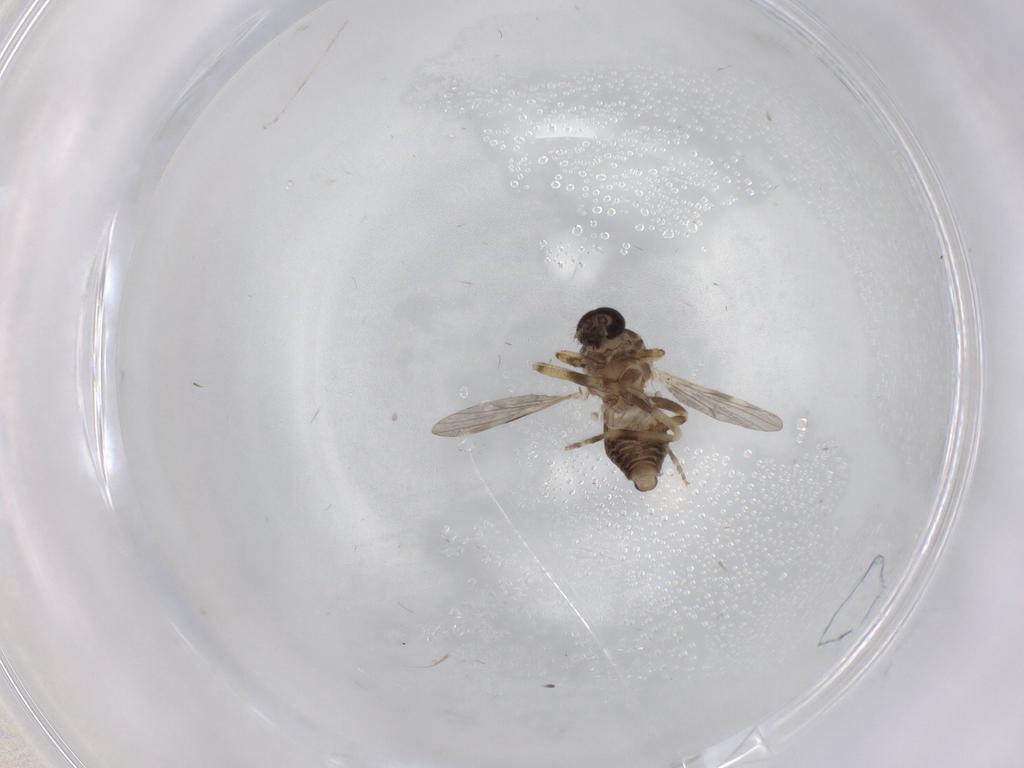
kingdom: Animalia
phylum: Arthropoda
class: Insecta
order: Diptera
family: Ceratopogonidae
